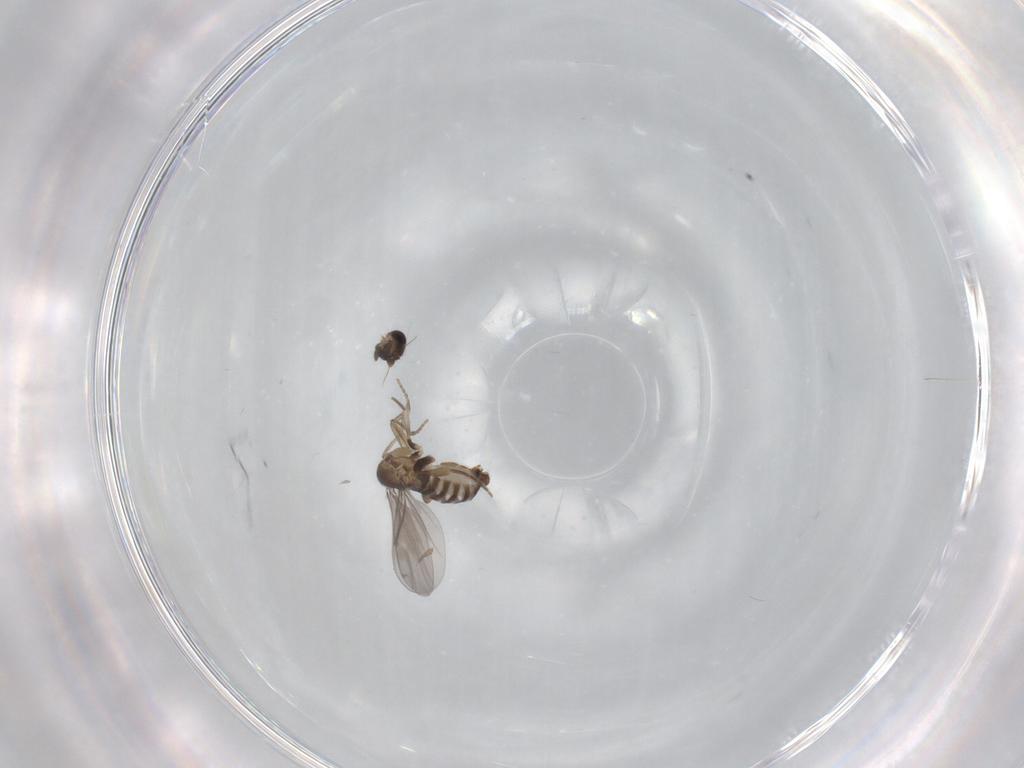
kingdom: Animalia
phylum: Arthropoda
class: Insecta
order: Diptera
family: Phoridae
